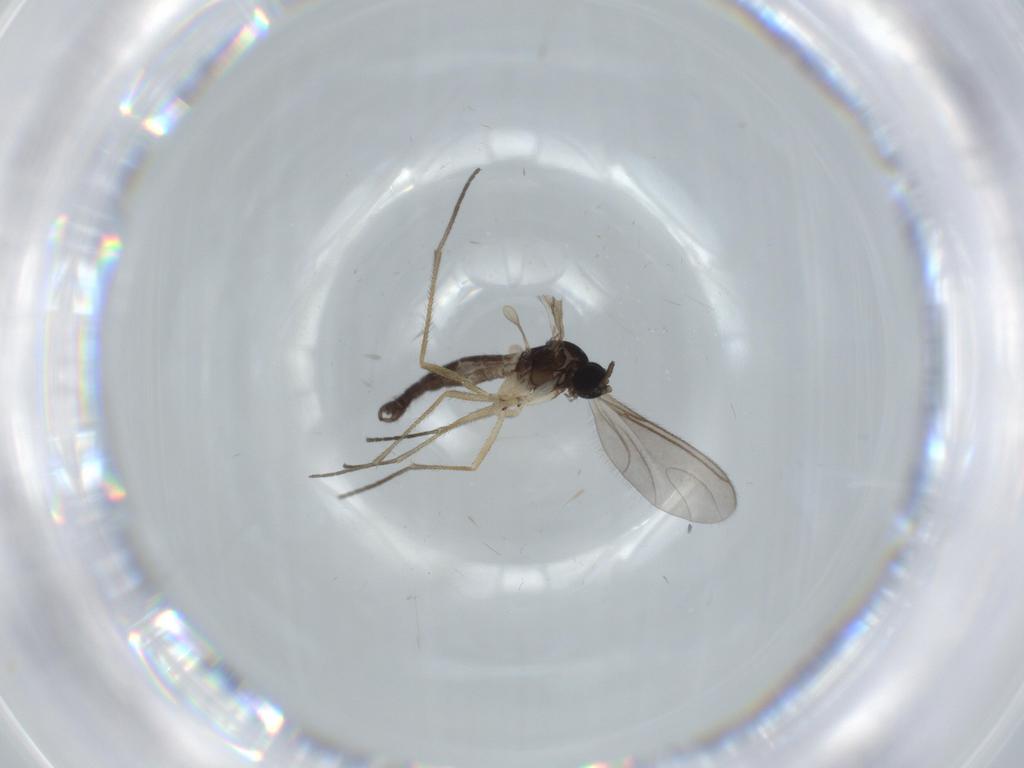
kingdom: Animalia
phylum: Arthropoda
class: Insecta
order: Diptera
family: Sciaridae
